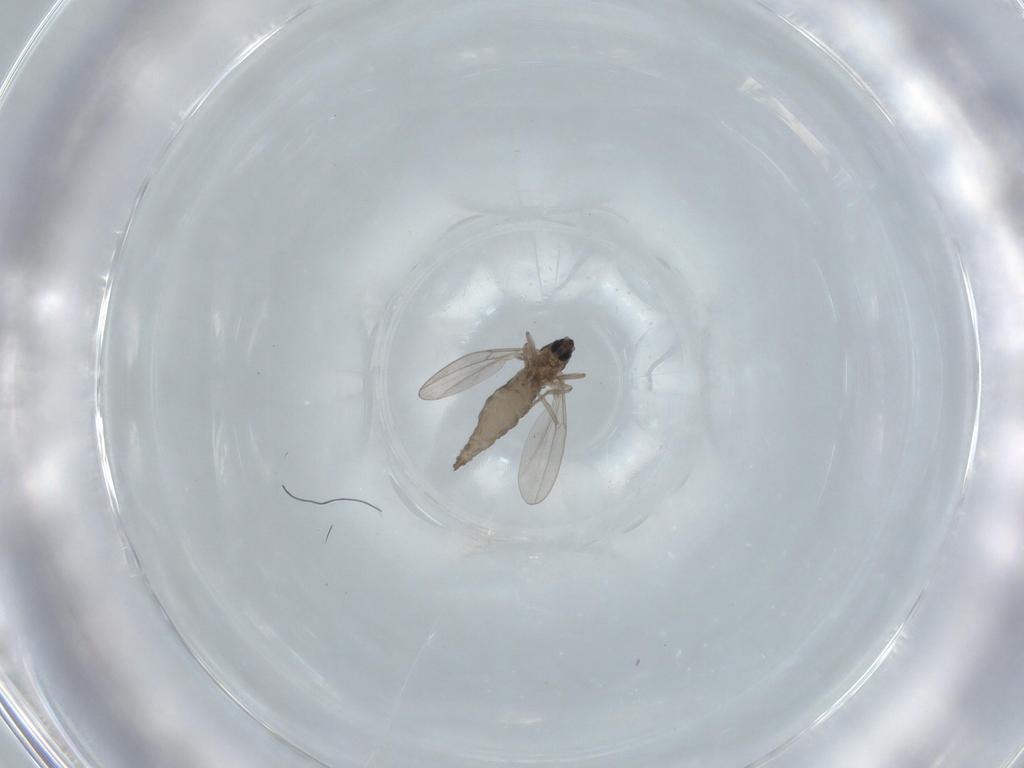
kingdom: Animalia
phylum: Arthropoda
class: Insecta
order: Diptera
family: Cecidomyiidae
